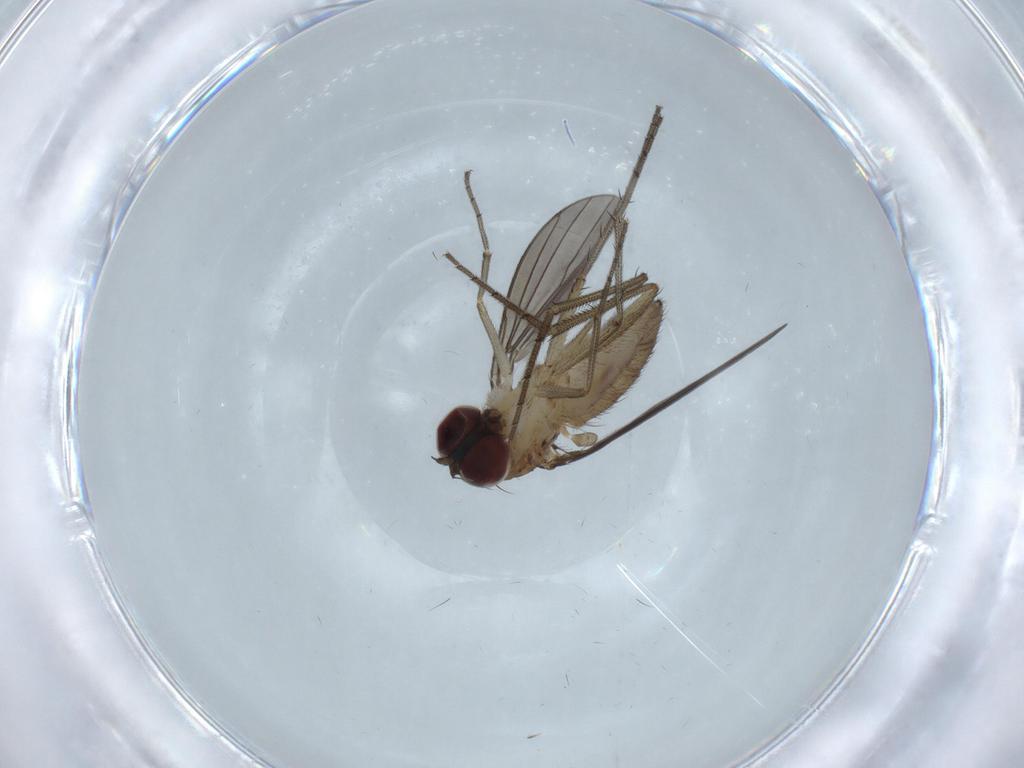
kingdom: Animalia
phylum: Arthropoda
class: Insecta
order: Diptera
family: Dolichopodidae
